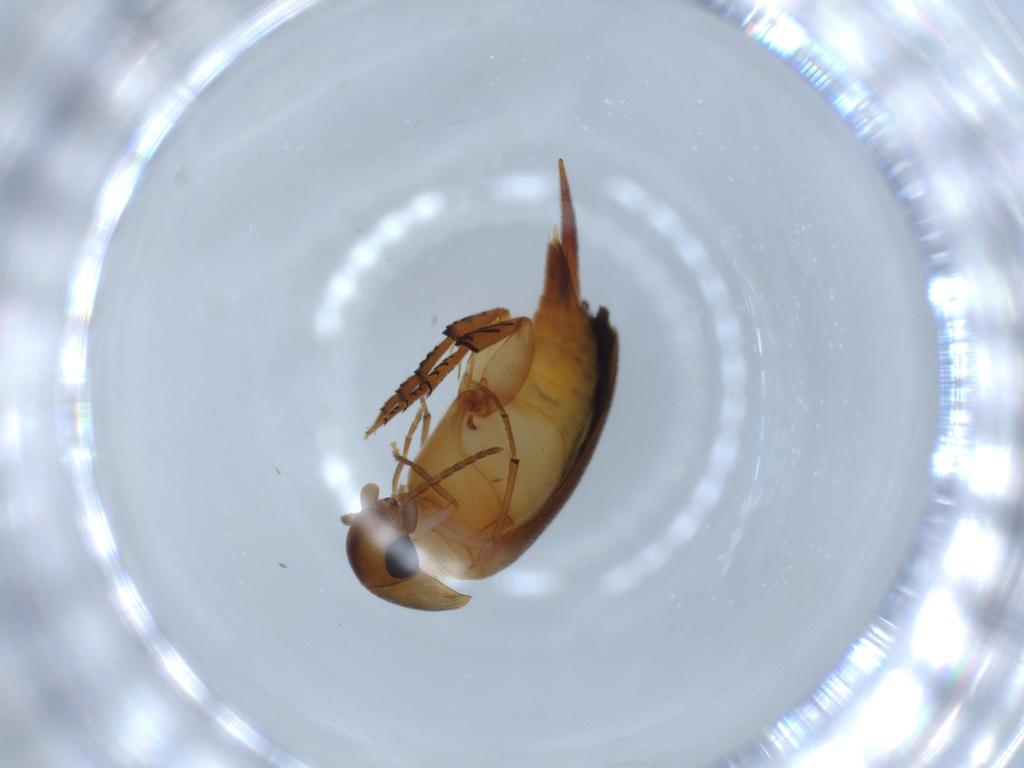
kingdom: Animalia
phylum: Arthropoda
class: Insecta
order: Coleoptera
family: Mordellidae
